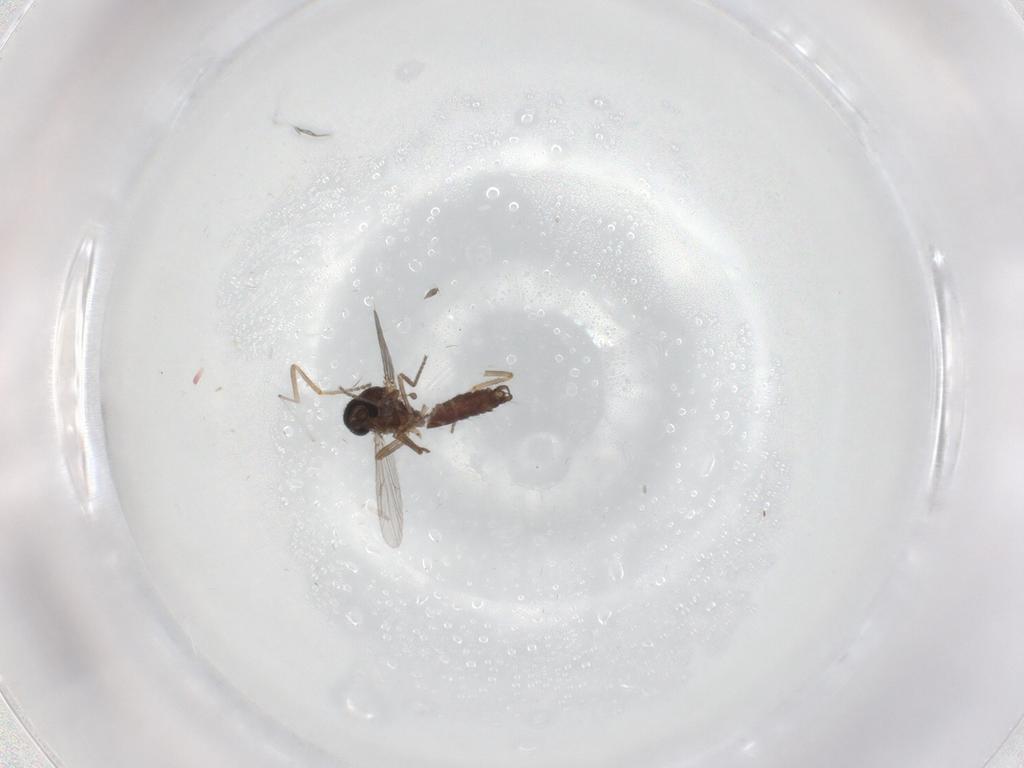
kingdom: Animalia
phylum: Arthropoda
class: Insecta
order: Diptera
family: Ceratopogonidae
